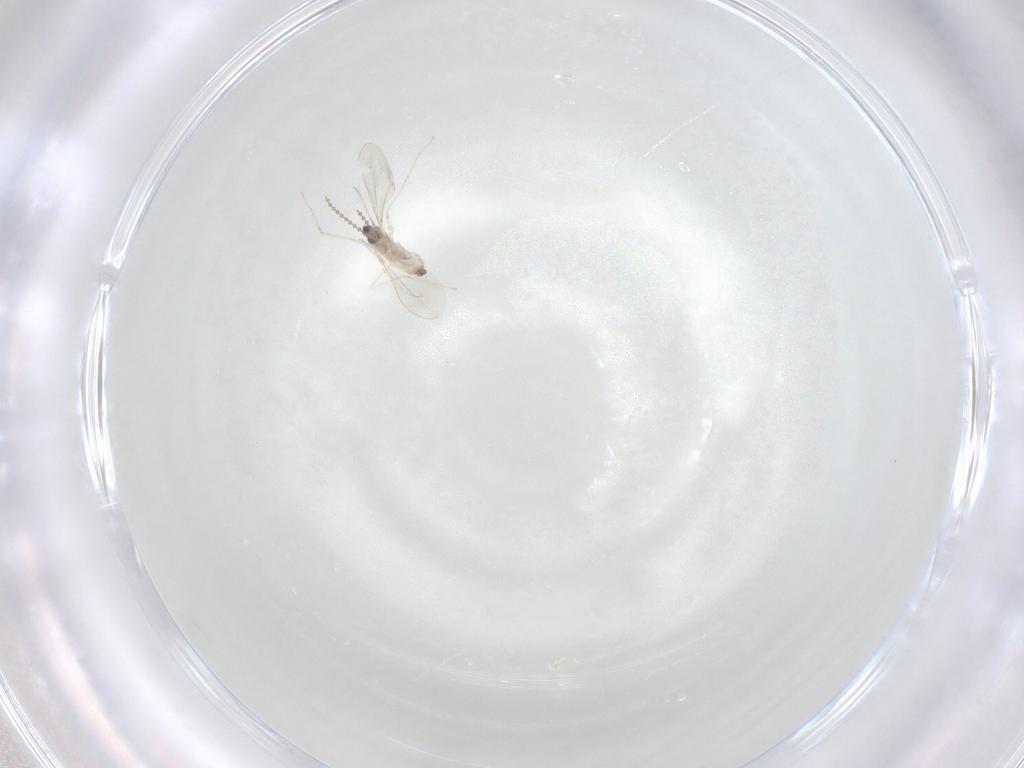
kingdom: Animalia
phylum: Arthropoda
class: Insecta
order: Diptera
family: Cecidomyiidae
